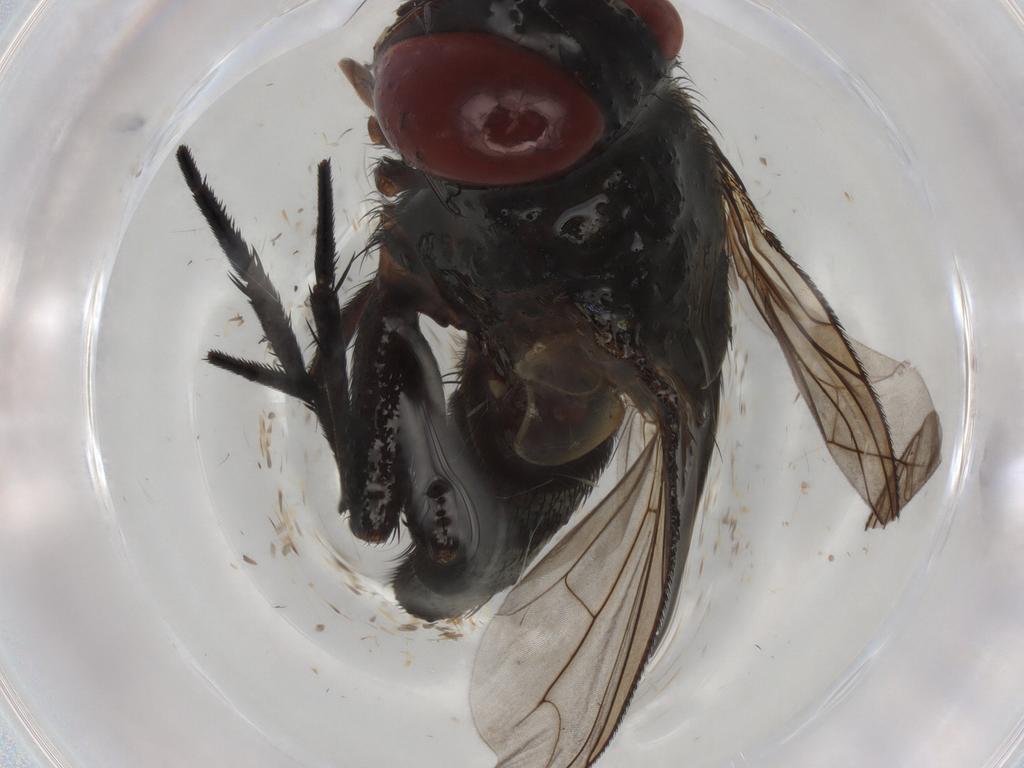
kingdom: Animalia
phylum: Arthropoda
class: Insecta
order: Diptera
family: Sarcophagidae
